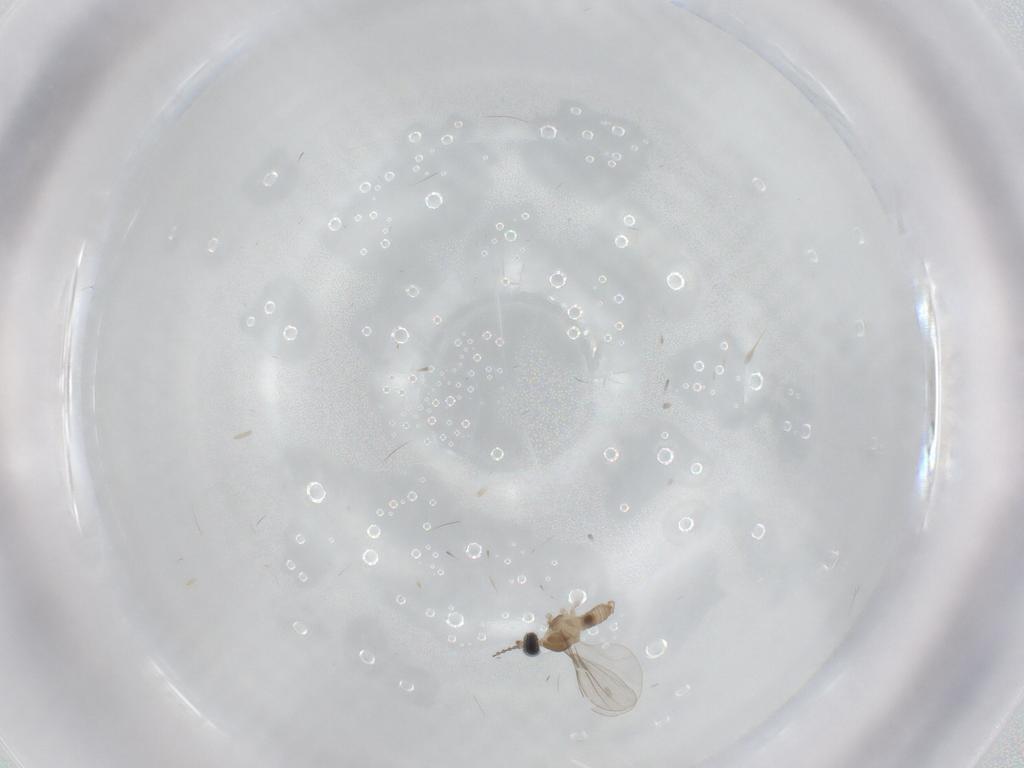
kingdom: Animalia
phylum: Arthropoda
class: Insecta
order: Diptera
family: Cecidomyiidae
